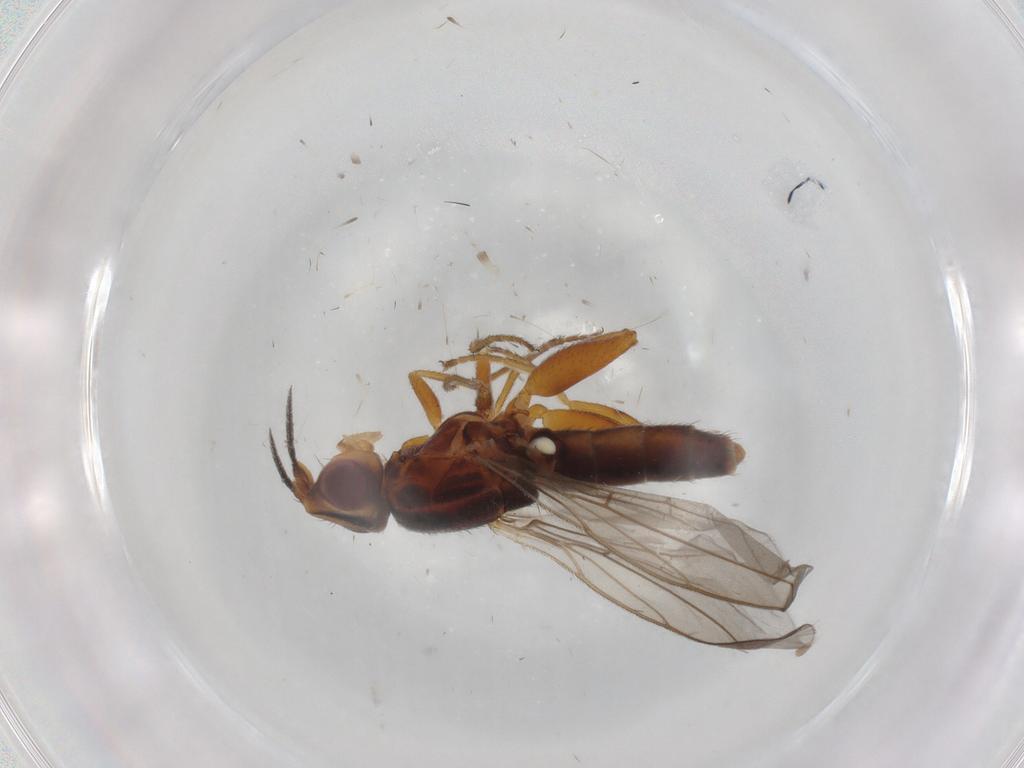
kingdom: Animalia
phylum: Arthropoda
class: Insecta
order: Diptera
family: Chloropidae
